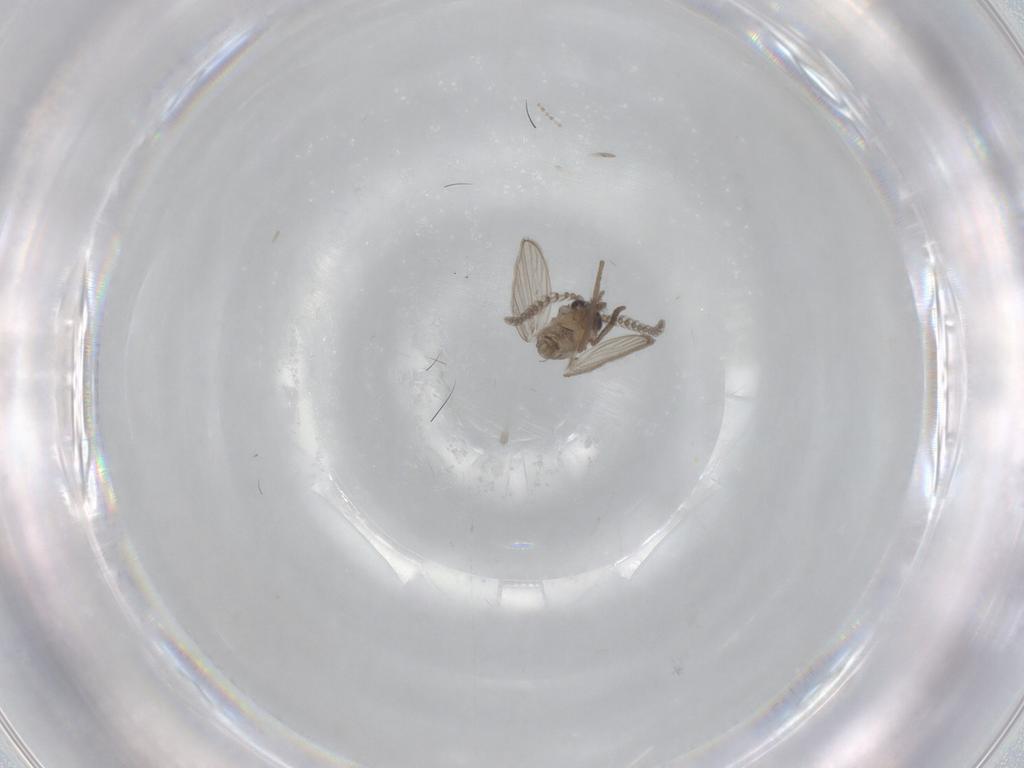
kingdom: Animalia
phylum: Arthropoda
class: Insecta
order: Diptera
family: Psychodidae
